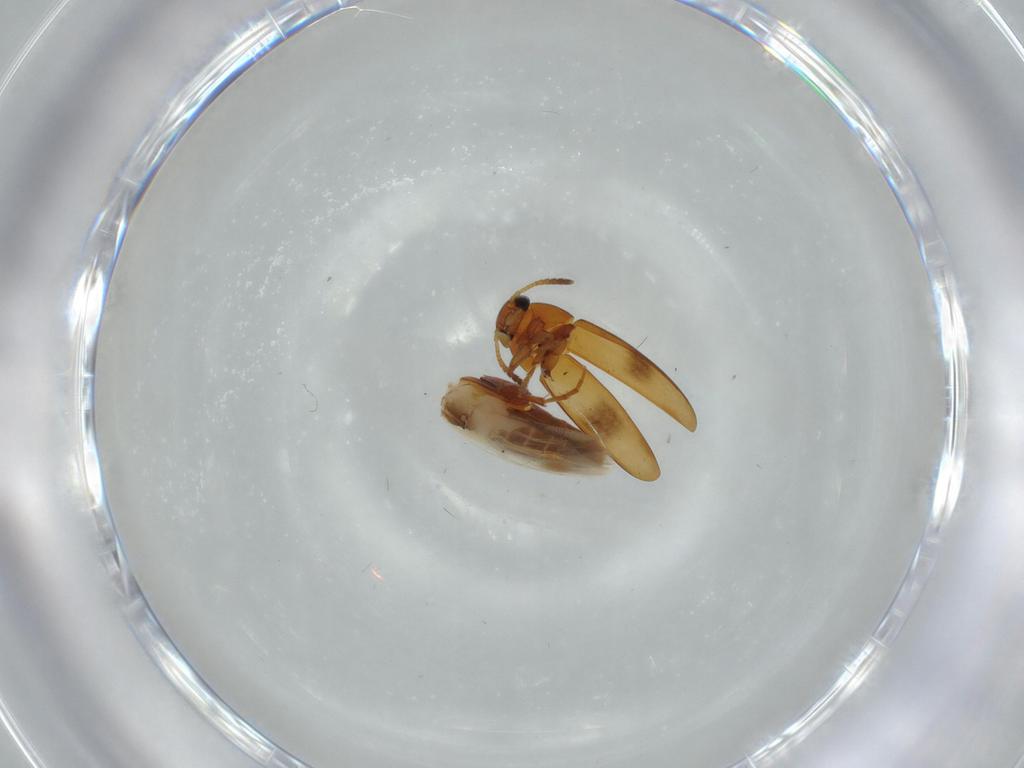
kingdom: Animalia
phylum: Arthropoda
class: Insecta
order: Coleoptera
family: Scraptiidae
